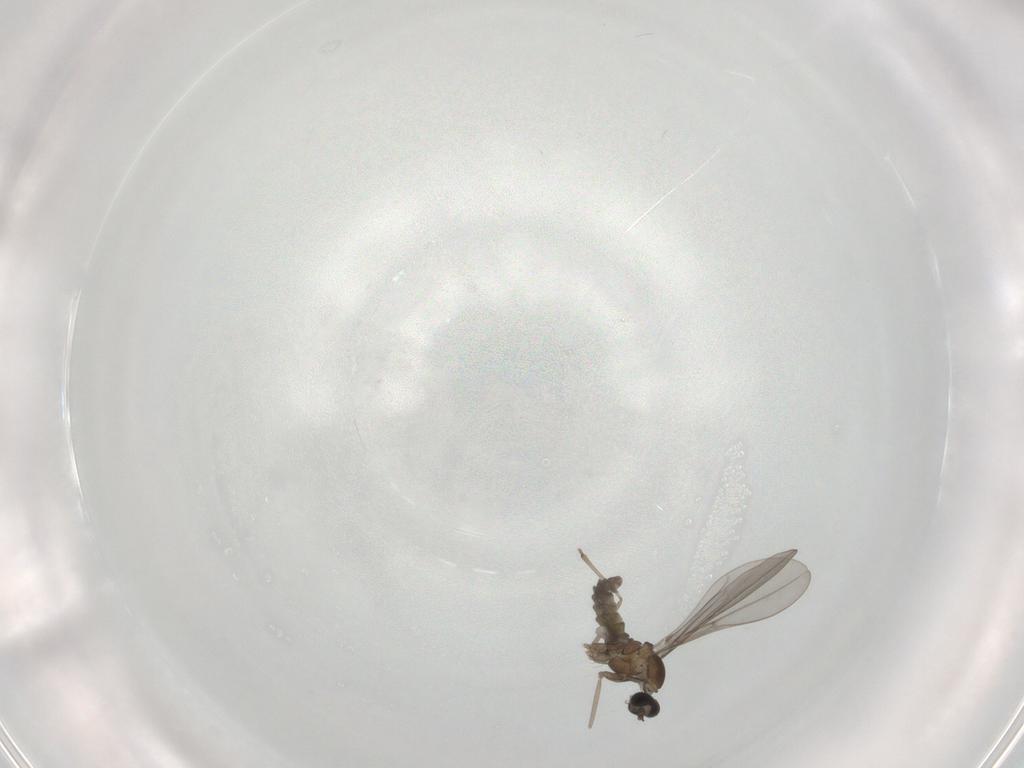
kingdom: Animalia
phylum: Arthropoda
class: Insecta
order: Diptera
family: Cecidomyiidae
